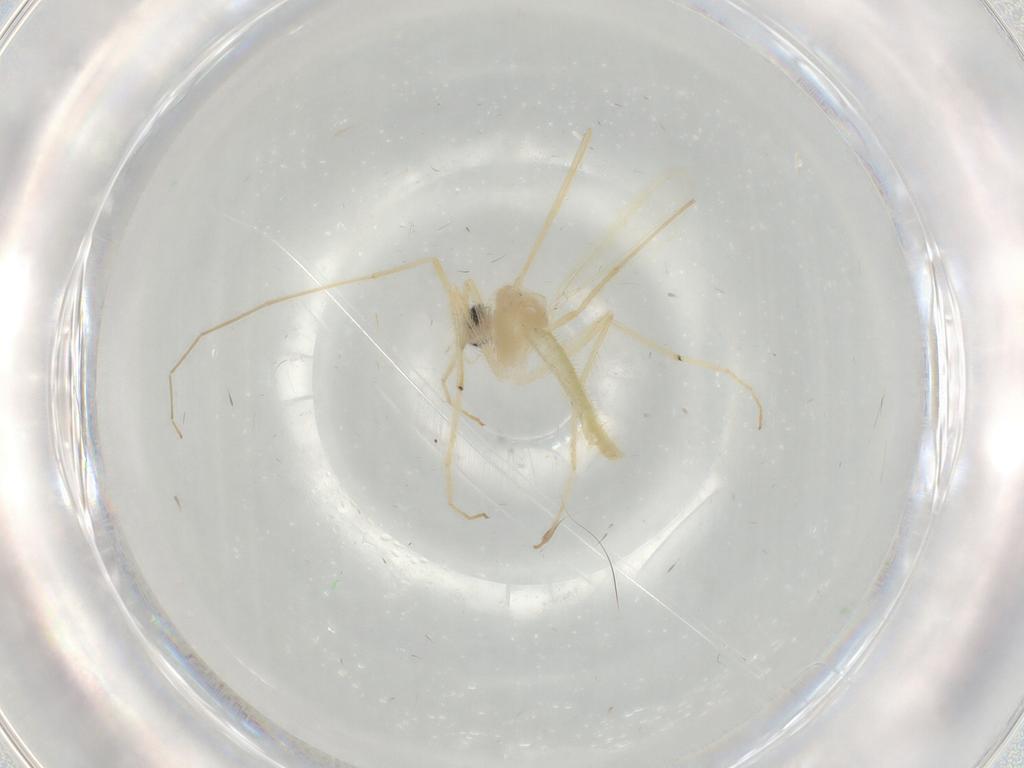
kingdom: Animalia
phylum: Arthropoda
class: Insecta
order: Diptera
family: Chironomidae
